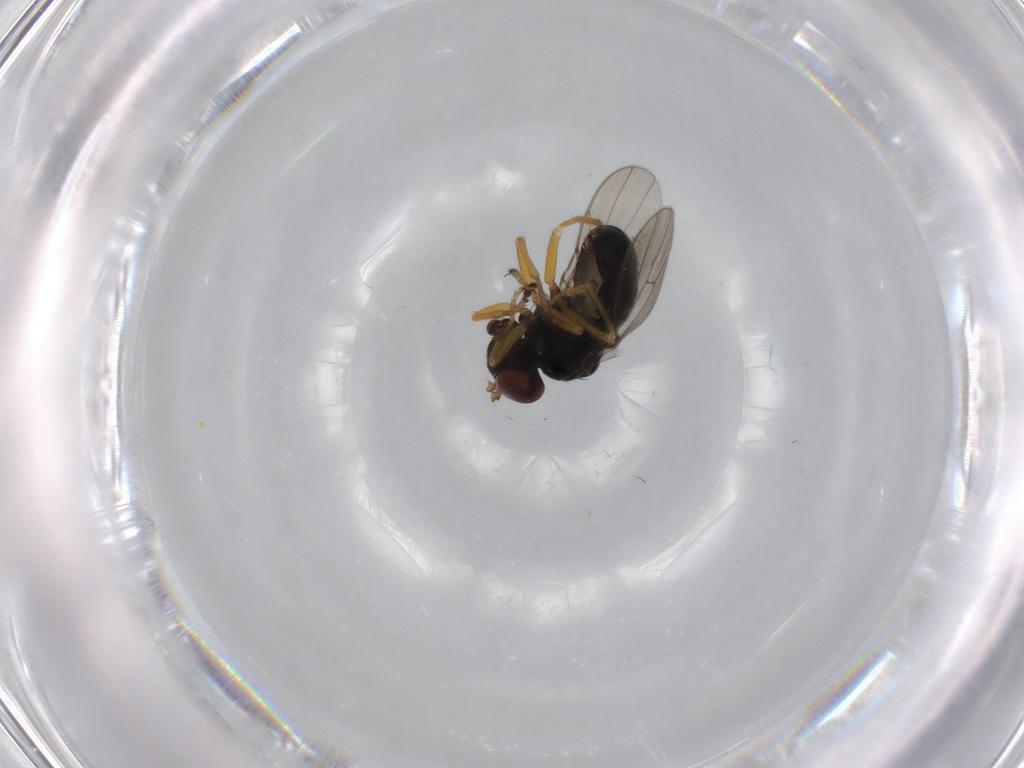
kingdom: Animalia
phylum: Arthropoda
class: Insecta
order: Diptera
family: Ephydridae
